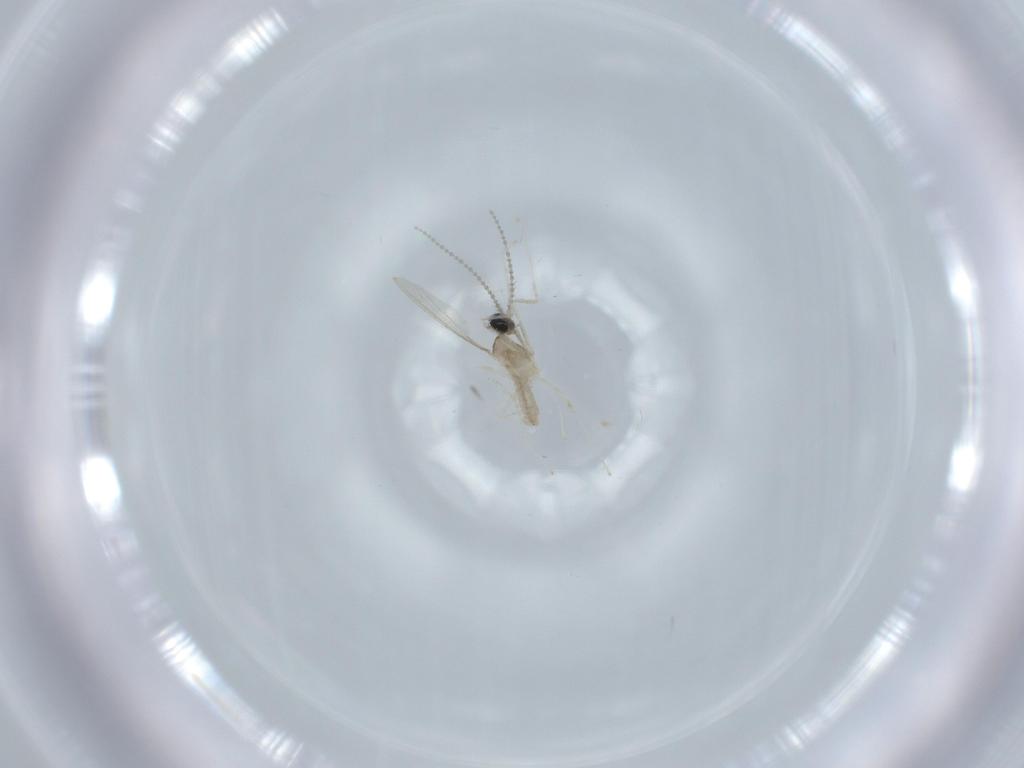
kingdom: Animalia
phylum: Arthropoda
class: Insecta
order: Diptera
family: Cecidomyiidae
